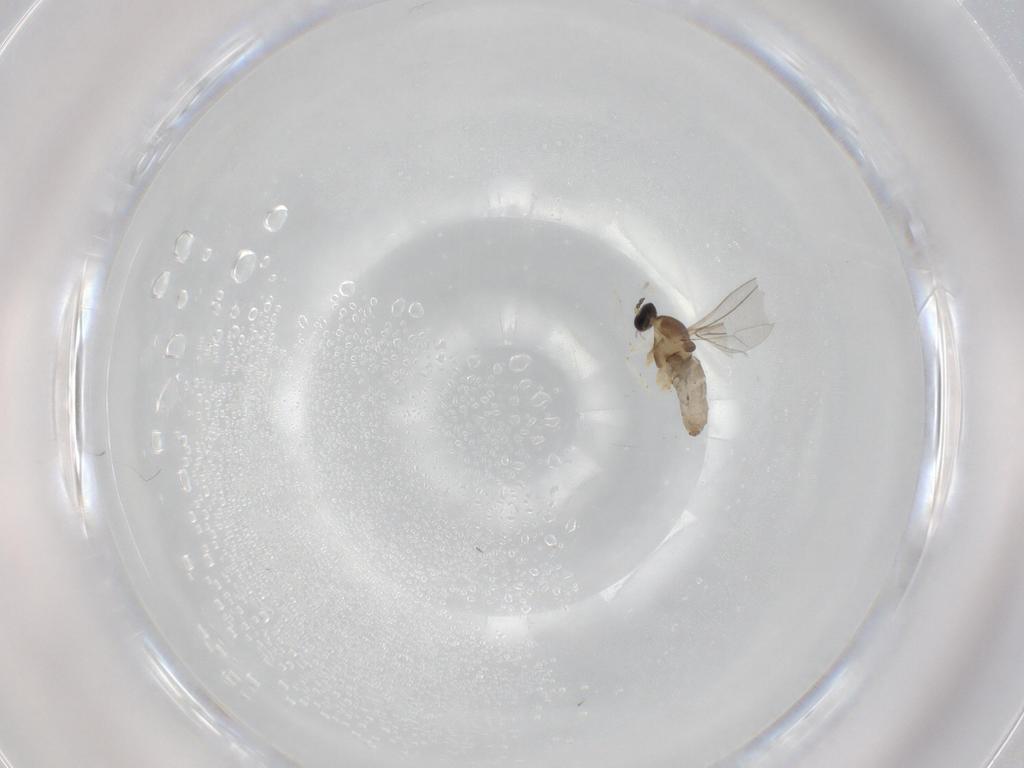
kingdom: Animalia
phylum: Arthropoda
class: Insecta
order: Diptera
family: Cecidomyiidae
